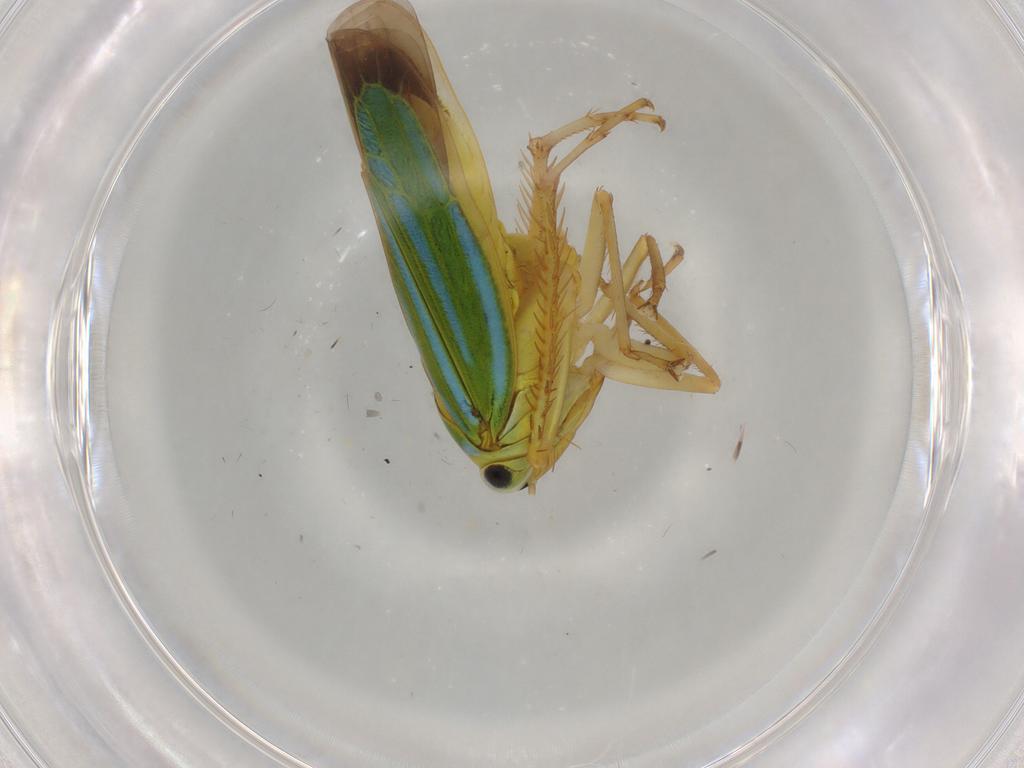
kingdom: Animalia
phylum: Arthropoda
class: Insecta
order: Hemiptera
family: Cicadellidae
